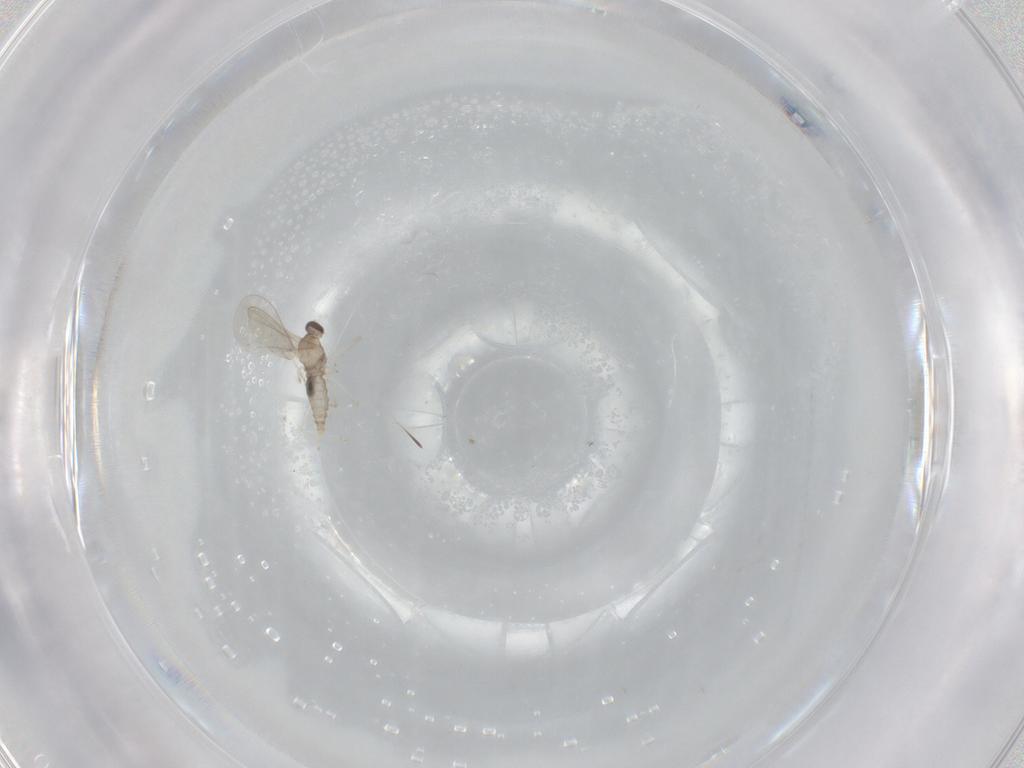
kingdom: Animalia
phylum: Arthropoda
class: Insecta
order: Diptera
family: Cecidomyiidae
